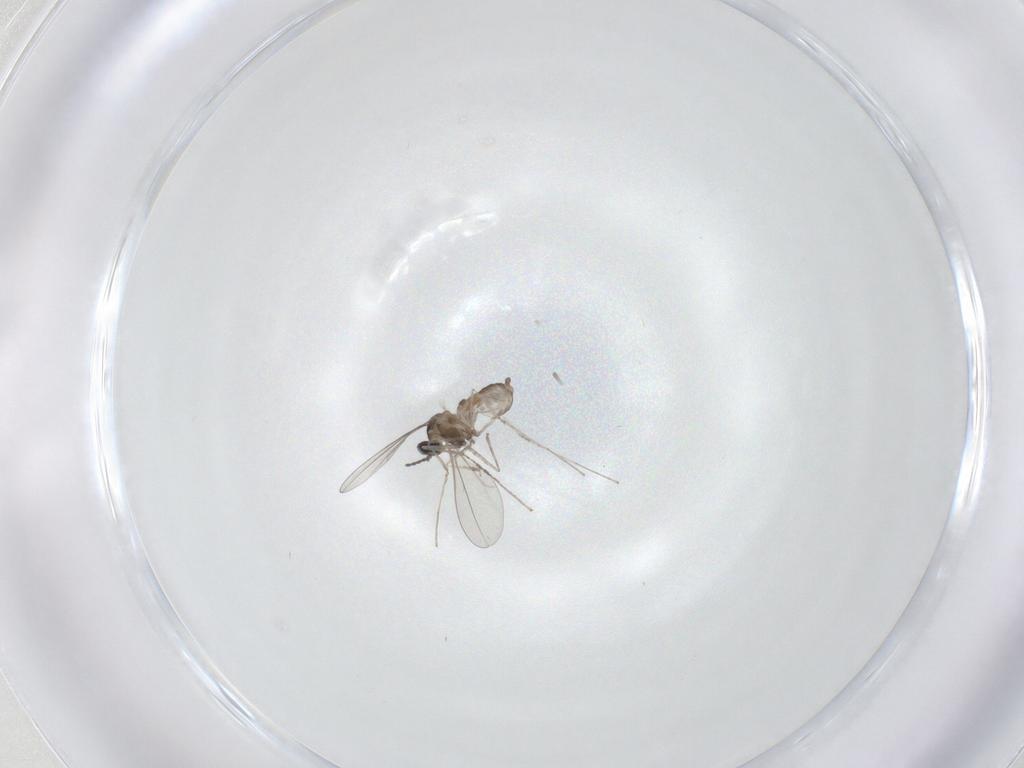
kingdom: Animalia
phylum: Arthropoda
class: Insecta
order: Diptera
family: Cecidomyiidae
